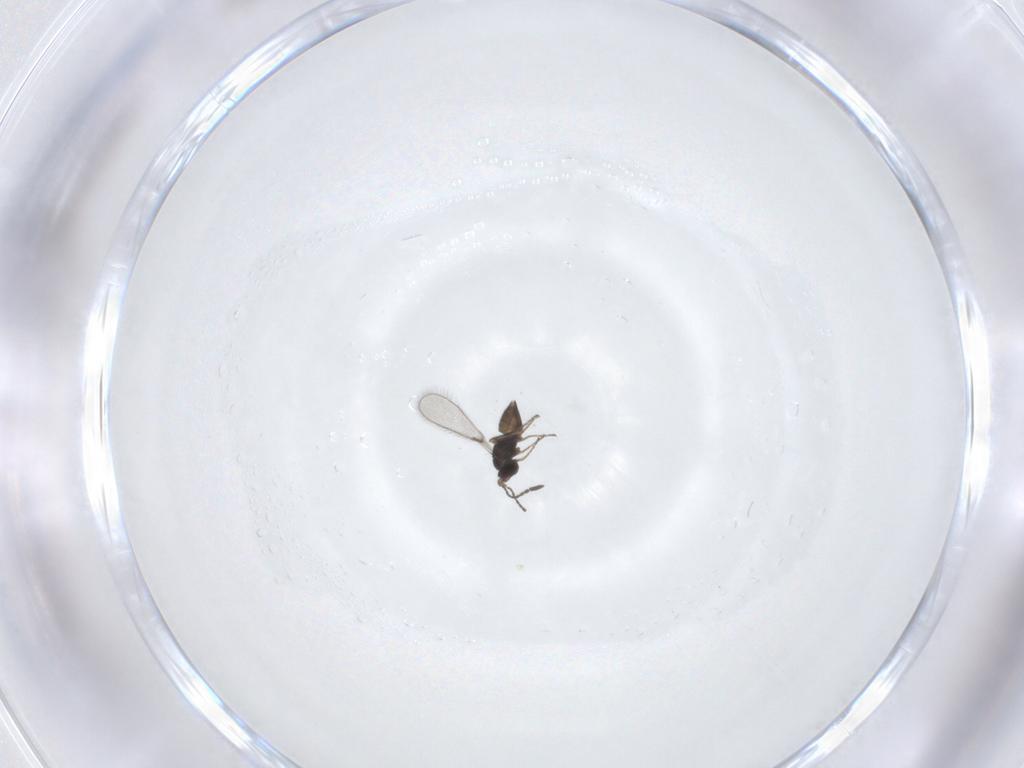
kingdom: Animalia
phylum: Arthropoda
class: Insecta
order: Hymenoptera
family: Mymaridae
